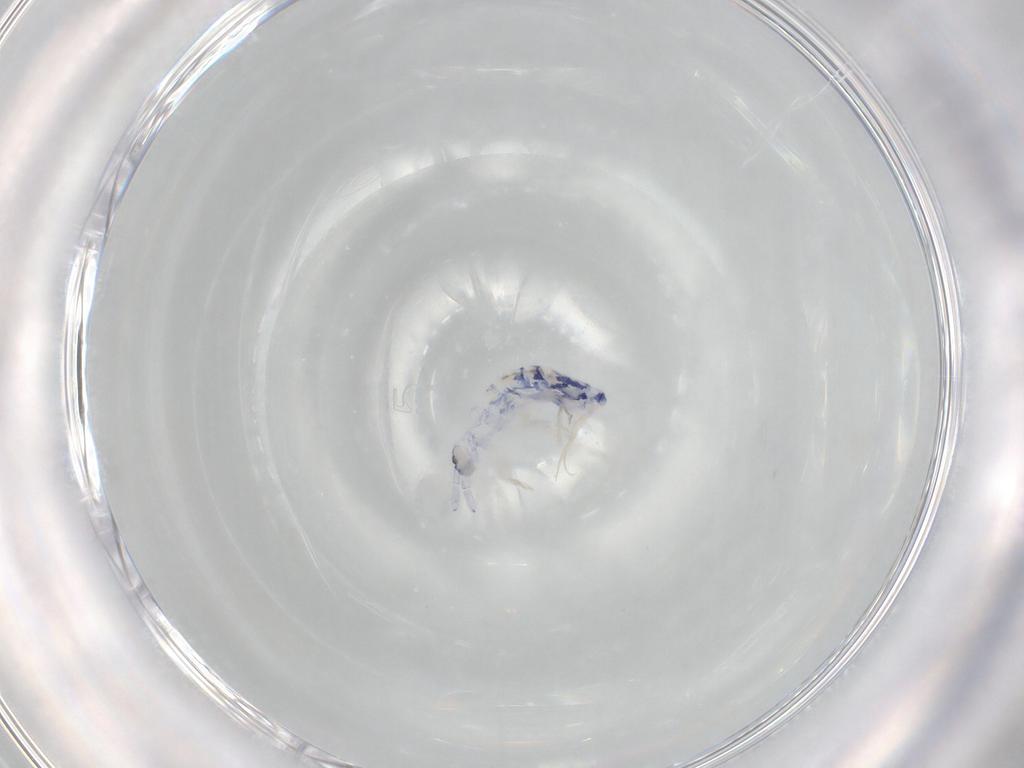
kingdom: Animalia
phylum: Arthropoda
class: Collembola
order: Entomobryomorpha
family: Entomobryidae
